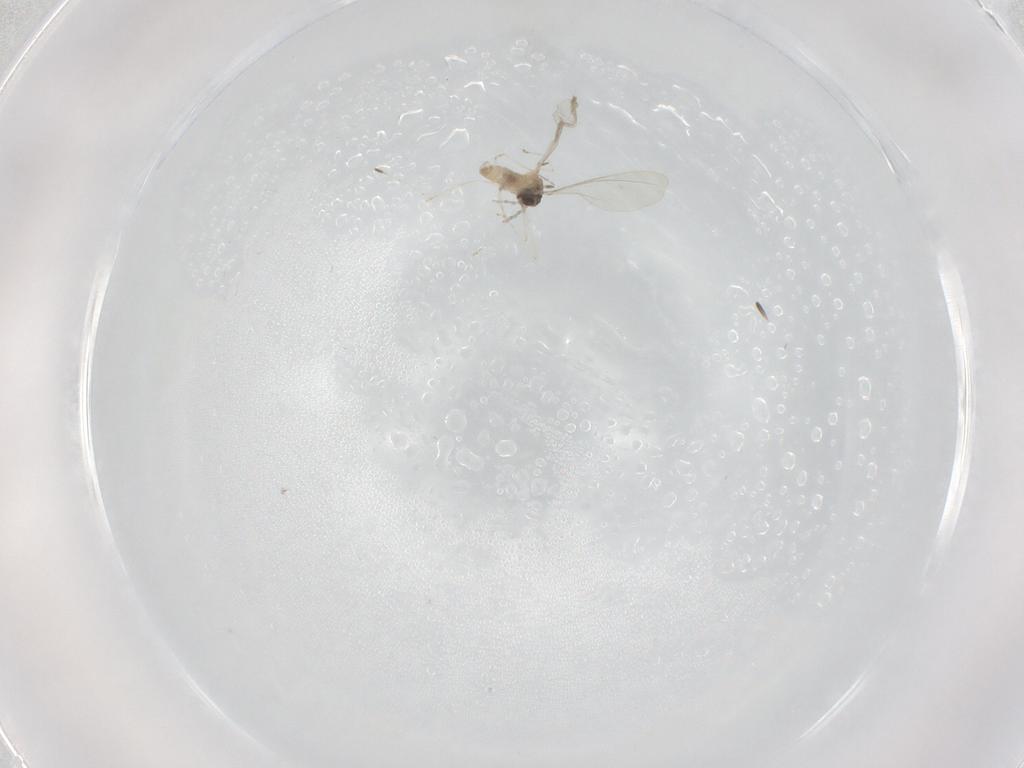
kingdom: Animalia
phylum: Arthropoda
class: Insecta
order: Diptera
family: Cecidomyiidae
